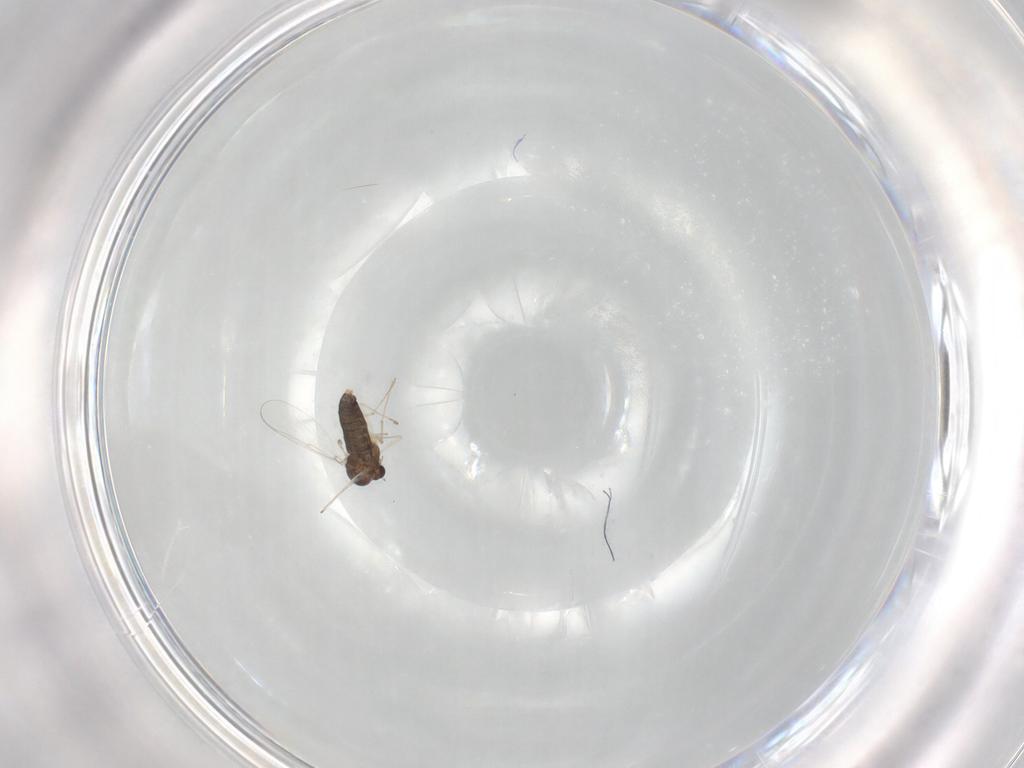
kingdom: Animalia
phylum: Arthropoda
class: Insecta
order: Diptera
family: Chironomidae
